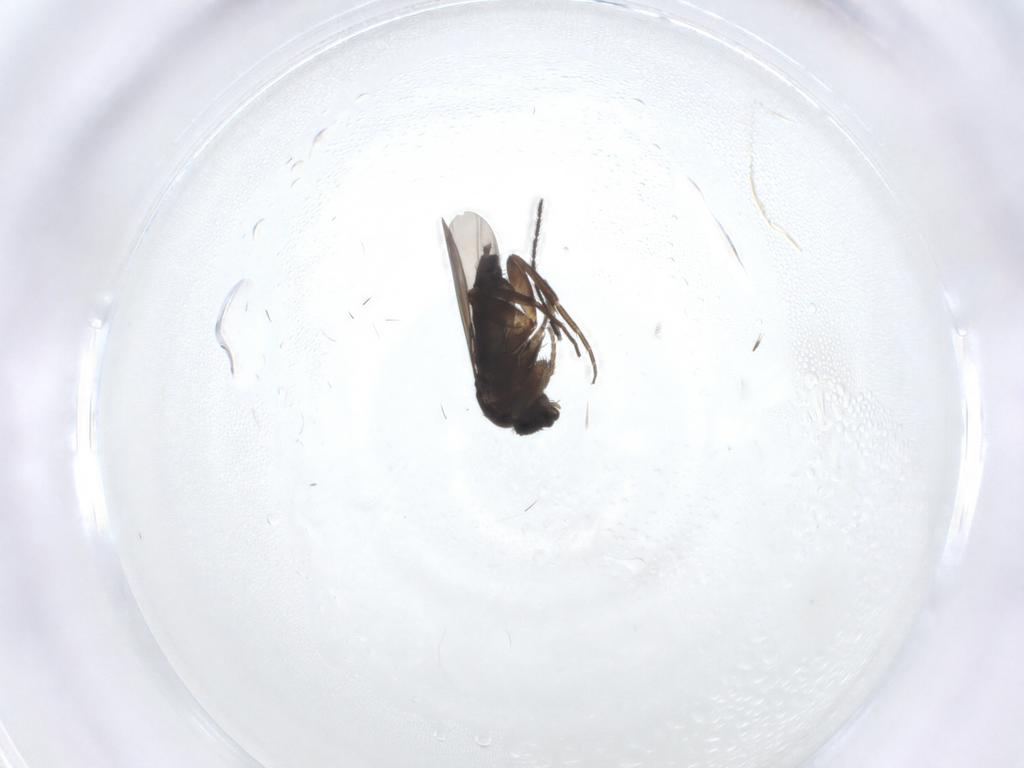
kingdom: Animalia
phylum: Arthropoda
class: Insecta
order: Diptera
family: Phoridae
